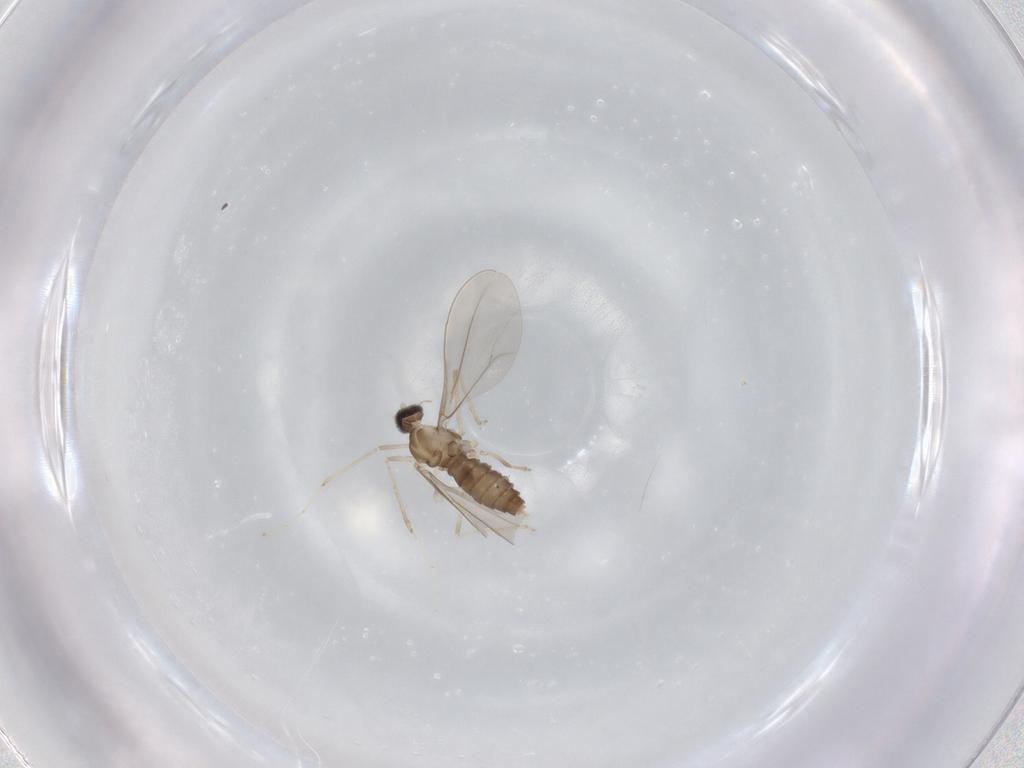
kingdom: Animalia
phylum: Arthropoda
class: Insecta
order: Diptera
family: Cecidomyiidae
